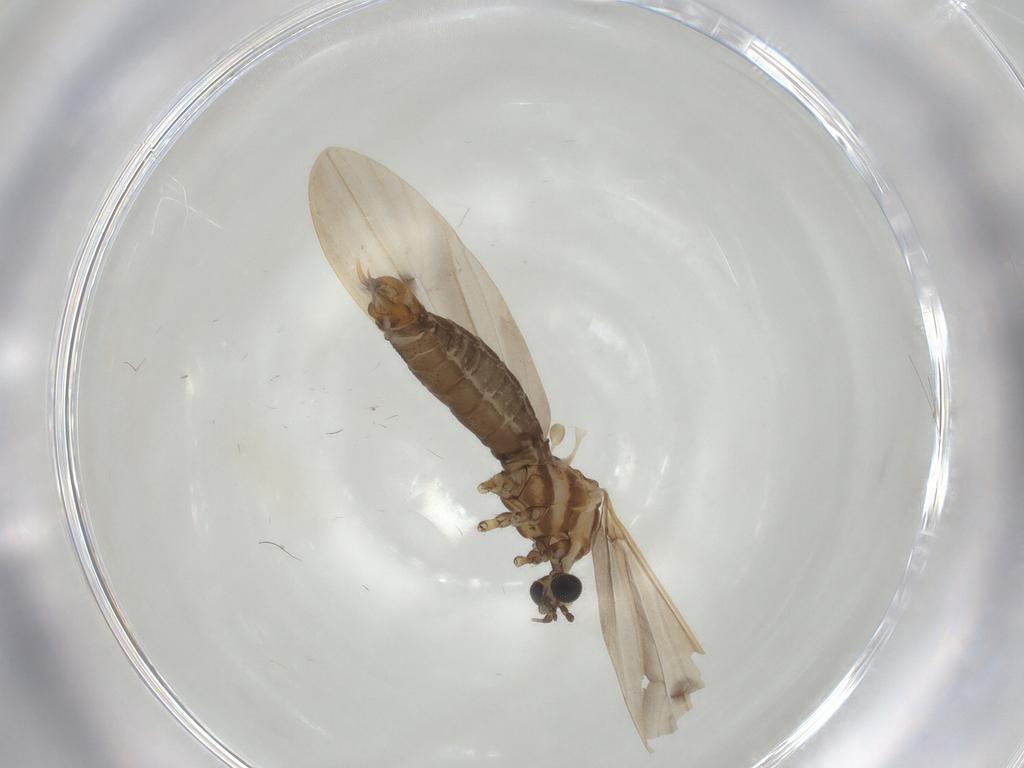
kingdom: Animalia
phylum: Arthropoda
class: Insecta
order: Diptera
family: Limoniidae
